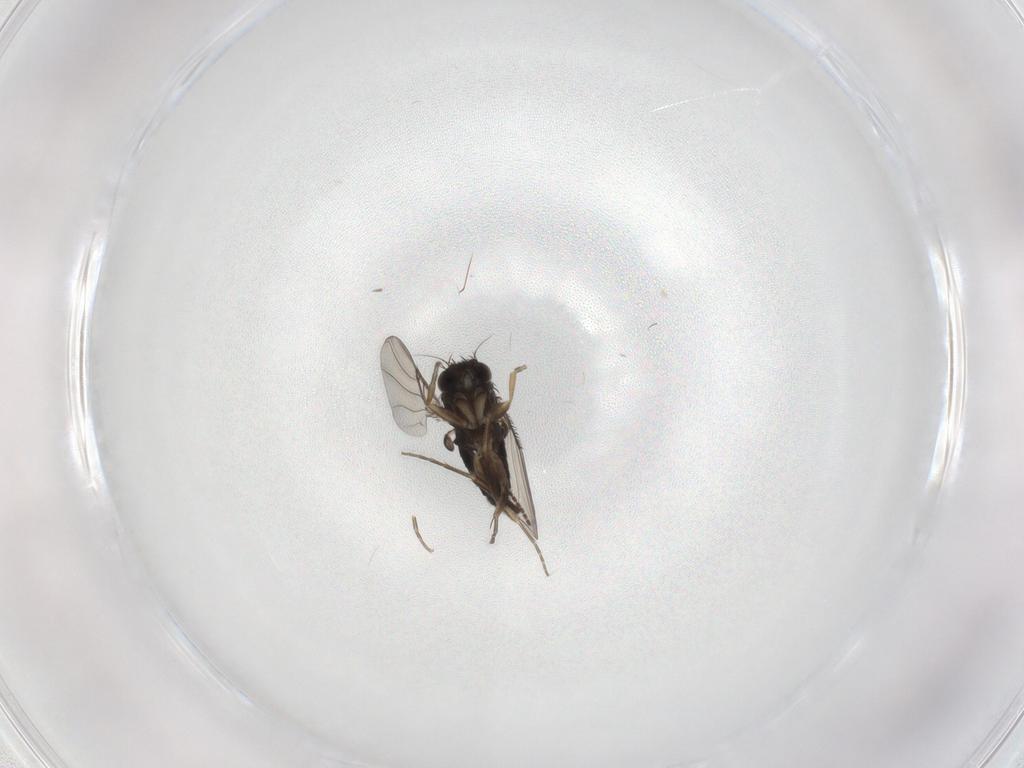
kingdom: Animalia
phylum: Arthropoda
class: Insecta
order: Diptera
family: Phoridae
